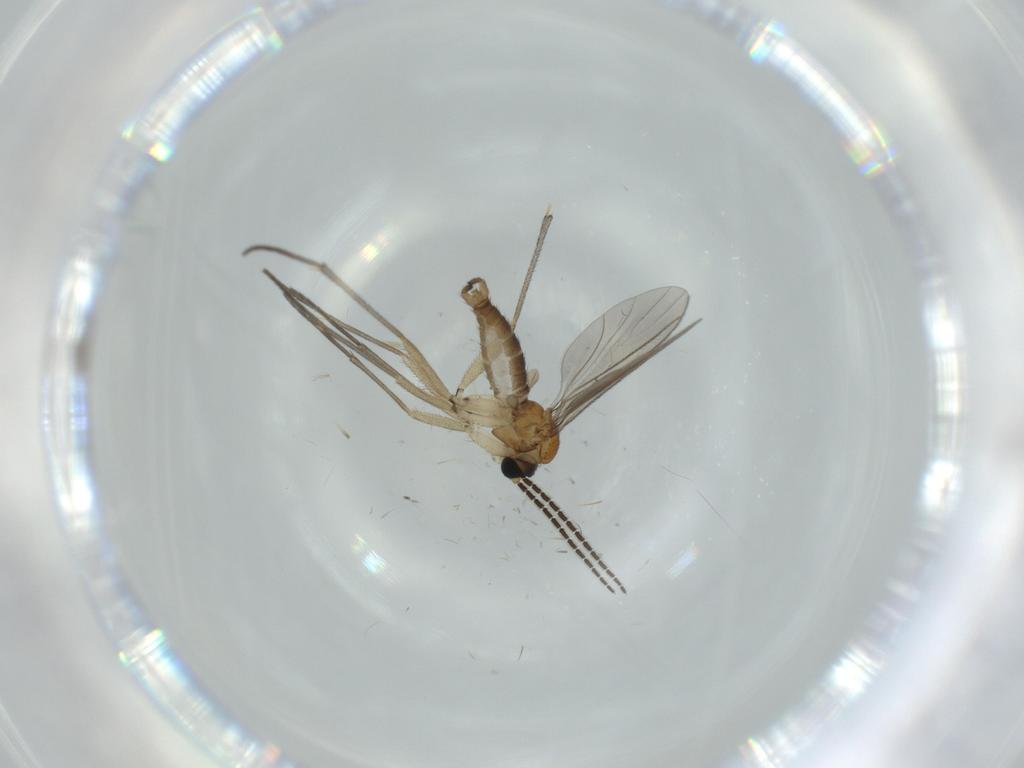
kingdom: Animalia
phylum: Arthropoda
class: Insecta
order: Diptera
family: Sciaridae
